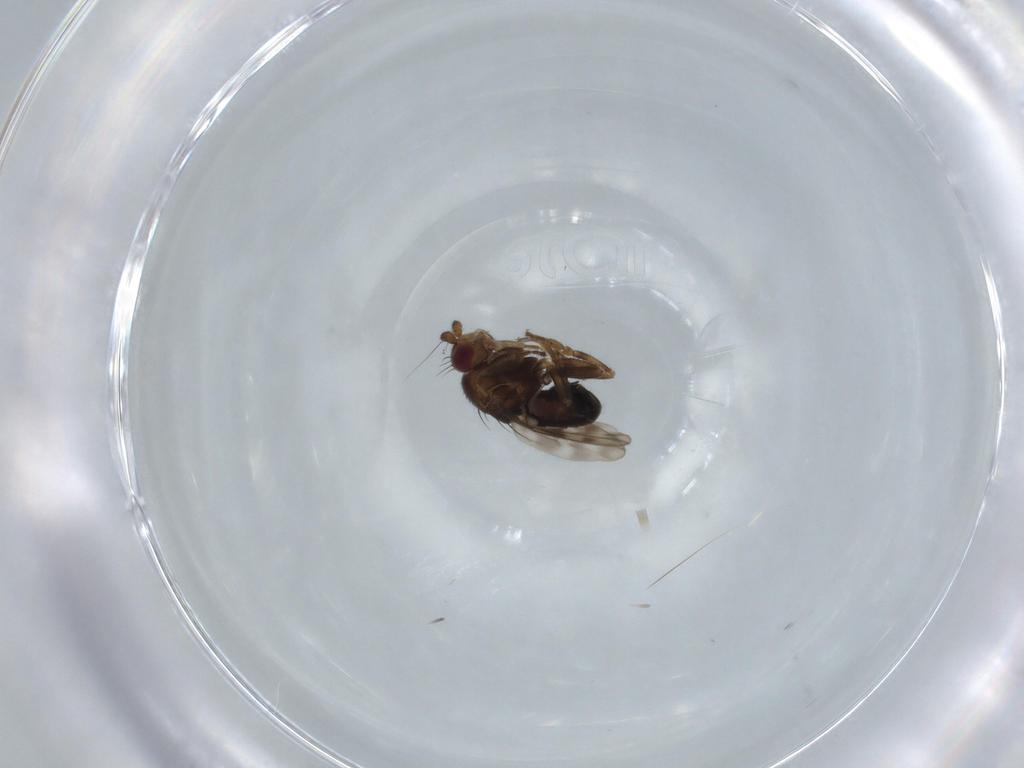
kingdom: Animalia
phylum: Arthropoda
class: Insecta
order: Diptera
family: Sphaeroceridae
